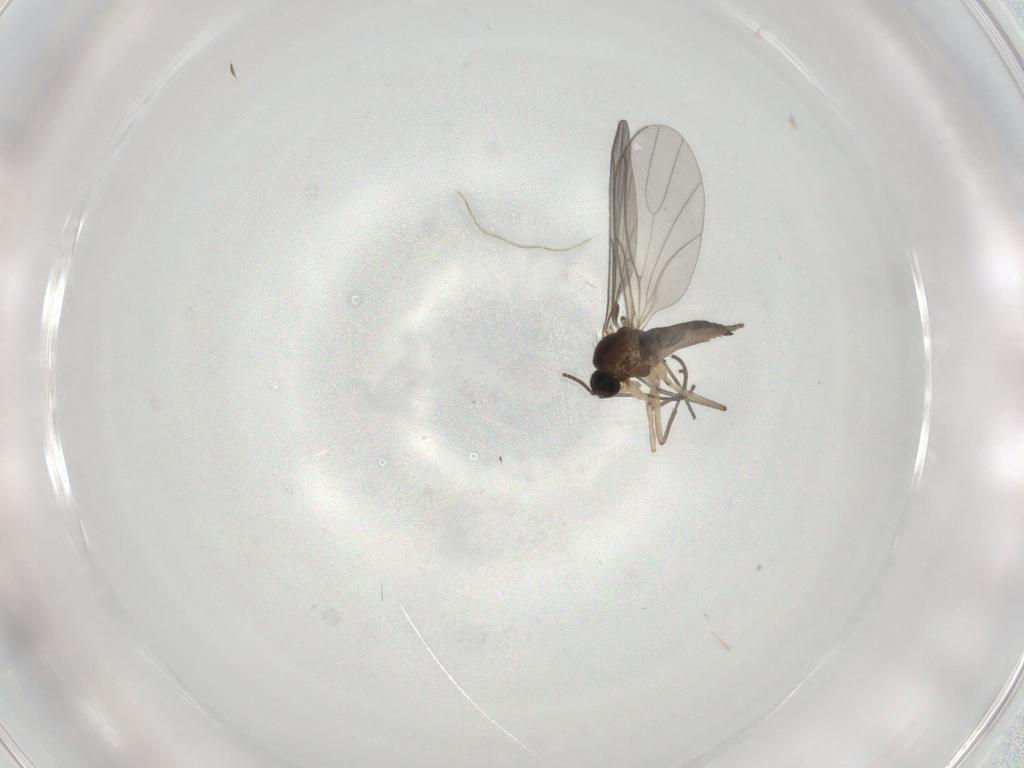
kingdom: Animalia
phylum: Arthropoda
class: Insecta
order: Diptera
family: Sciaridae
